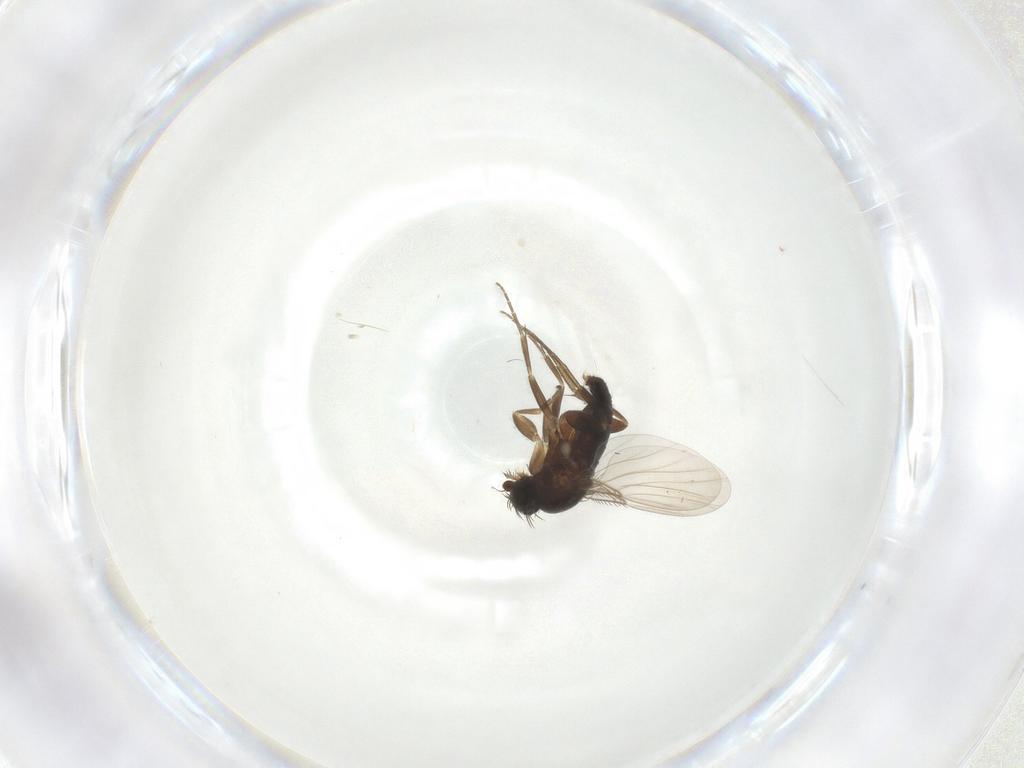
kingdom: Animalia
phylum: Arthropoda
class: Insecta
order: Diptera
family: Phoridae
